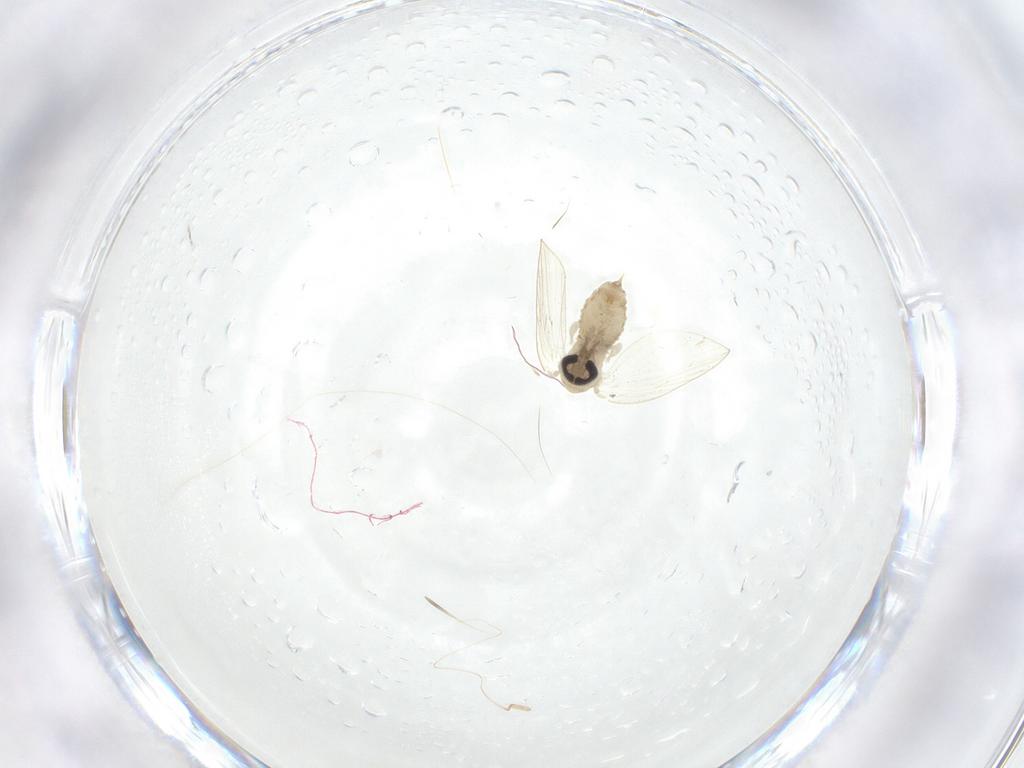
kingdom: Animalia
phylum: Arthropoda
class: Insecta
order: Diptera
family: Psychodidae
